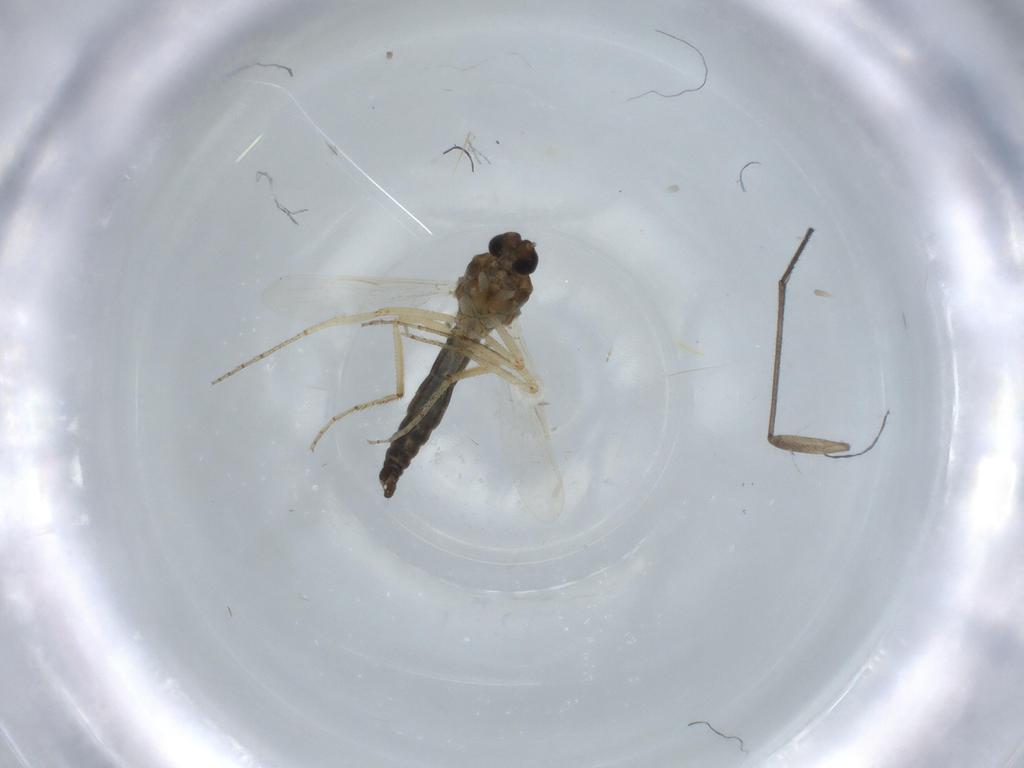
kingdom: Animalia
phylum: Arthropoda
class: Insecta
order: Diptera
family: Ceratopogonidae
